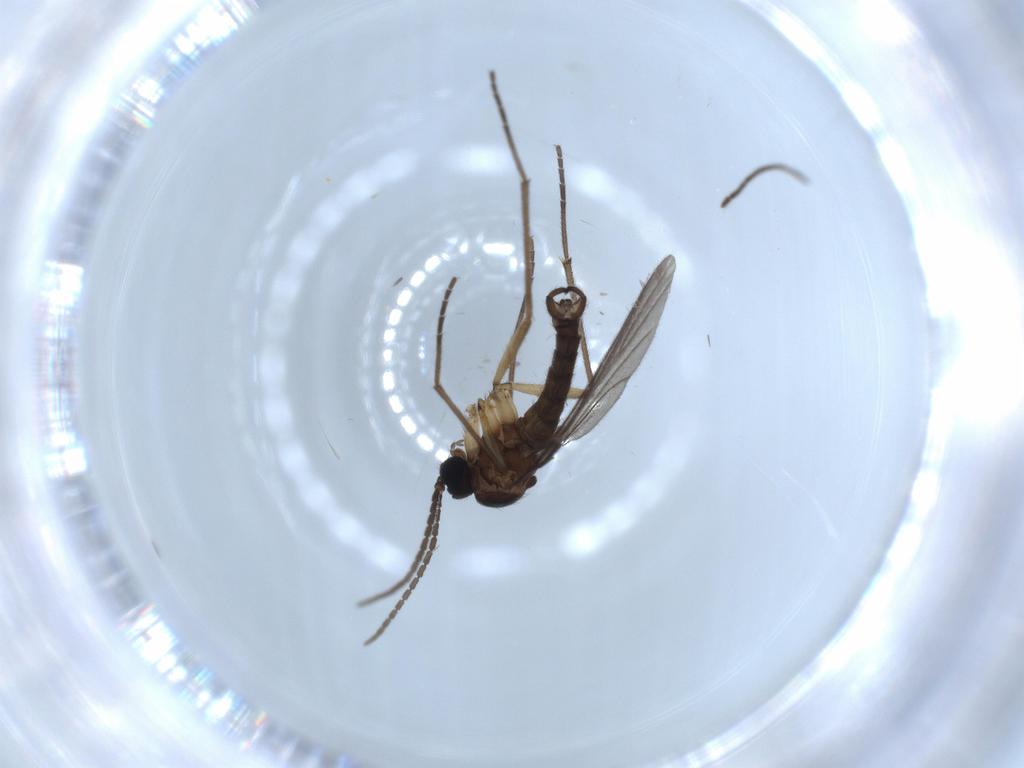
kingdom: Animalia
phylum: Arthropoda
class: Insecta
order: Diptera
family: Sciaridae
